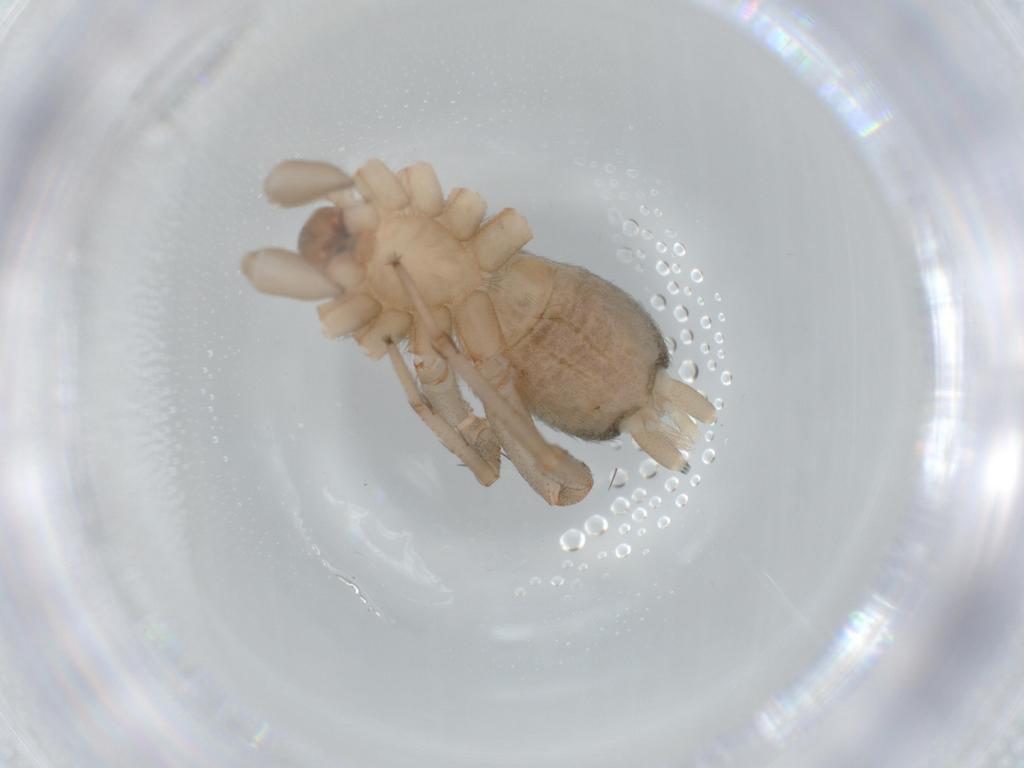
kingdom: Animalia
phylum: Arthropoda
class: Arachnida
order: Araneae
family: Gnaphosidae
